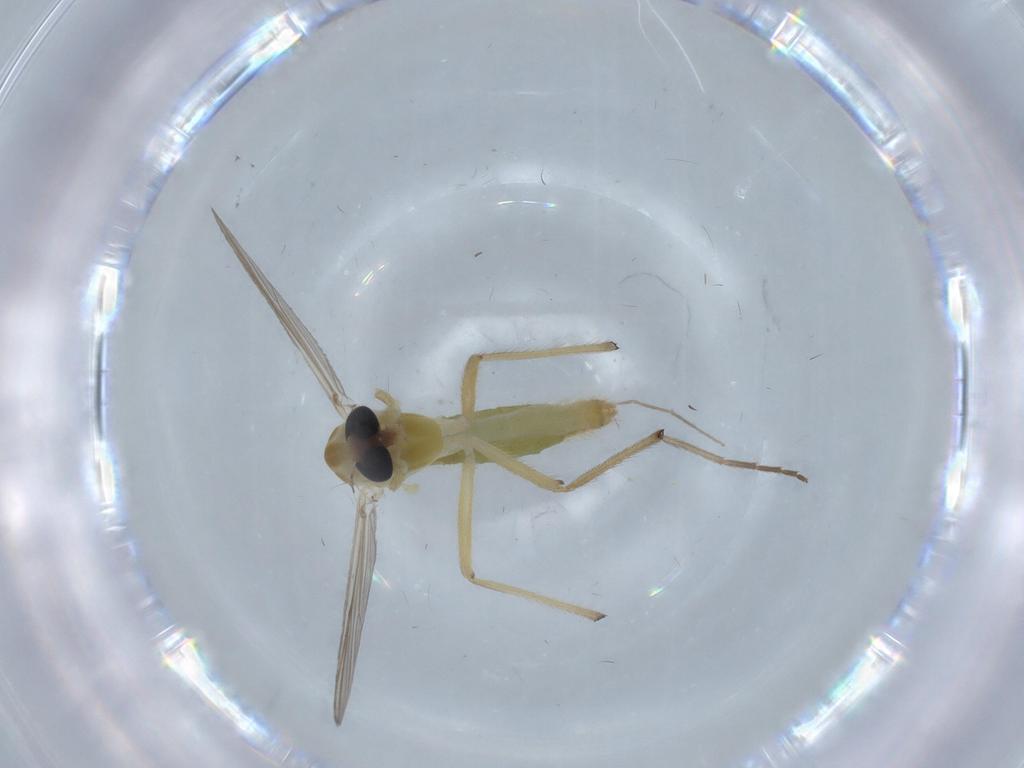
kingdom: Animalia
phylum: Arthropoda
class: Insecta
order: Diptera
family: Chironomidae
